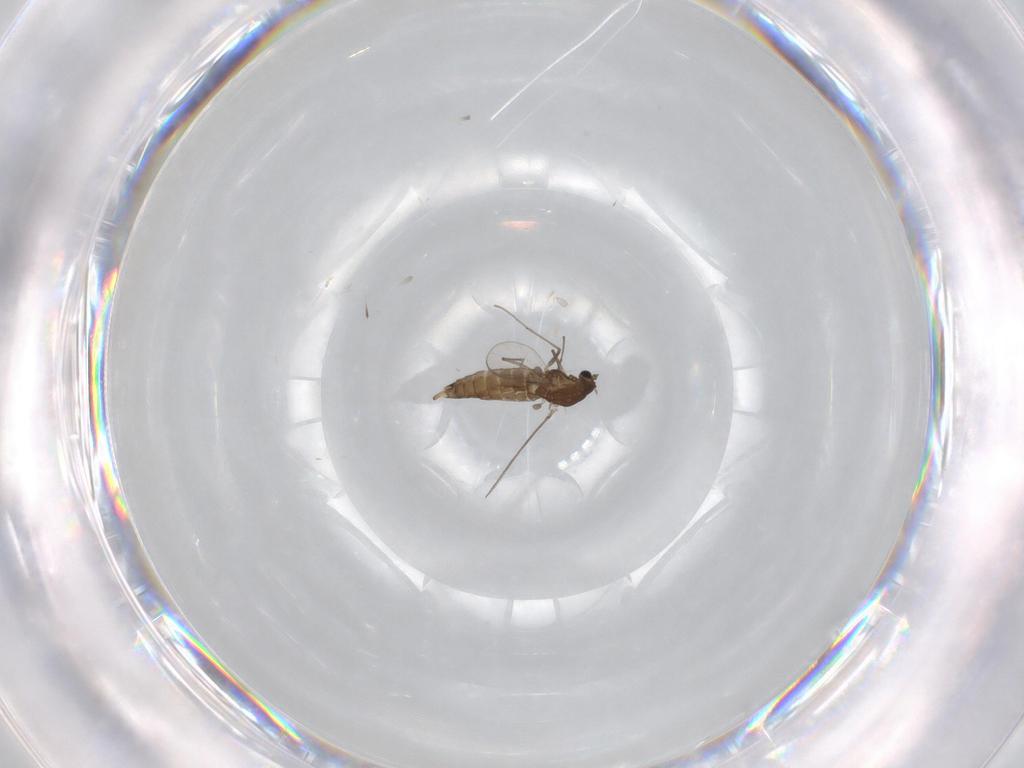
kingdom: Animalia
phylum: Arthropoda
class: Insecta
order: Diptera
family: Chironomidae
